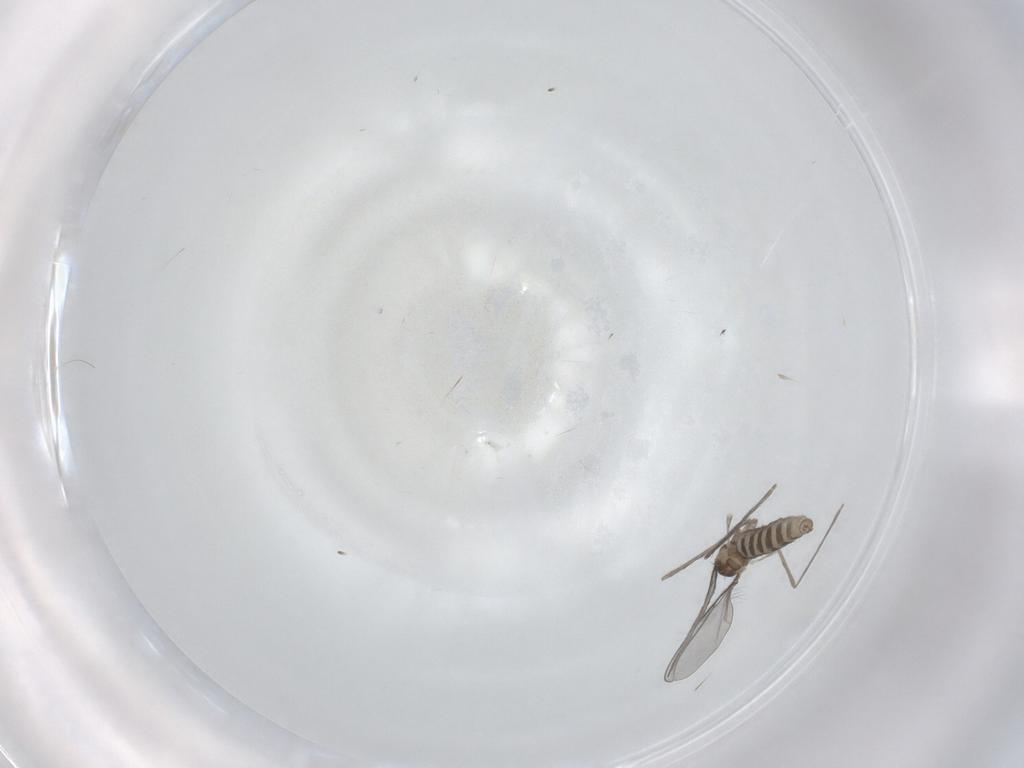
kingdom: Animalia
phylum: Arthropoda
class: Insecta
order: Diptera
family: Cecidomyiidae
